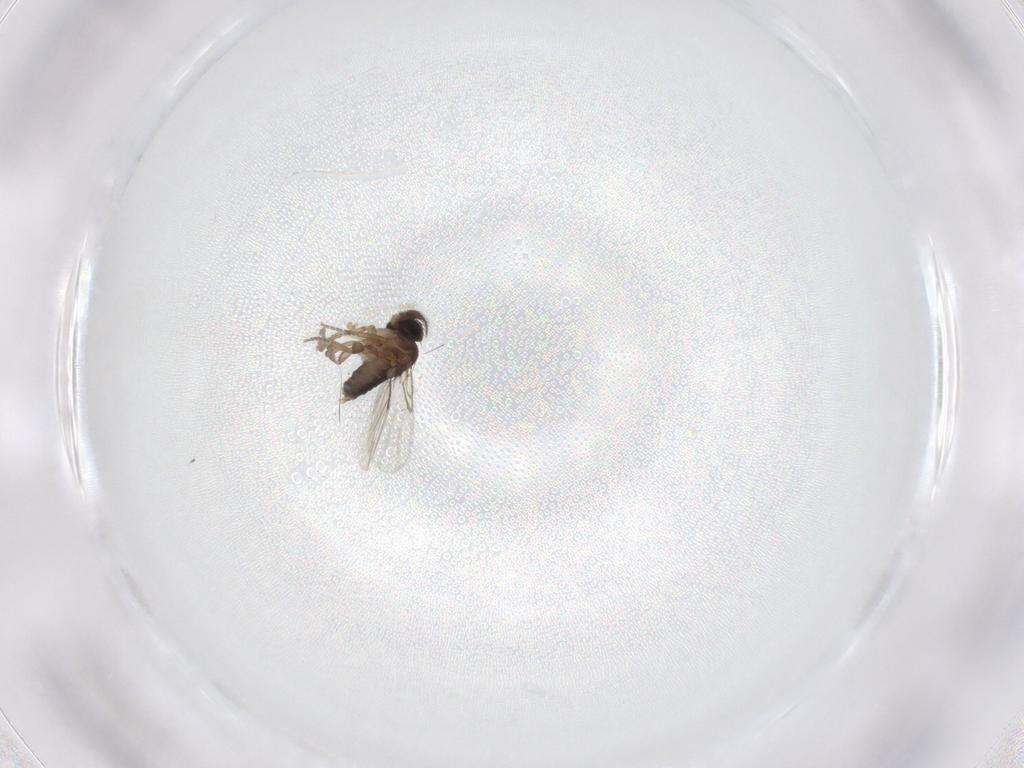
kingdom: Animalia
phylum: Arthropoda
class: Insecta
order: Diptera
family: Phoridae
